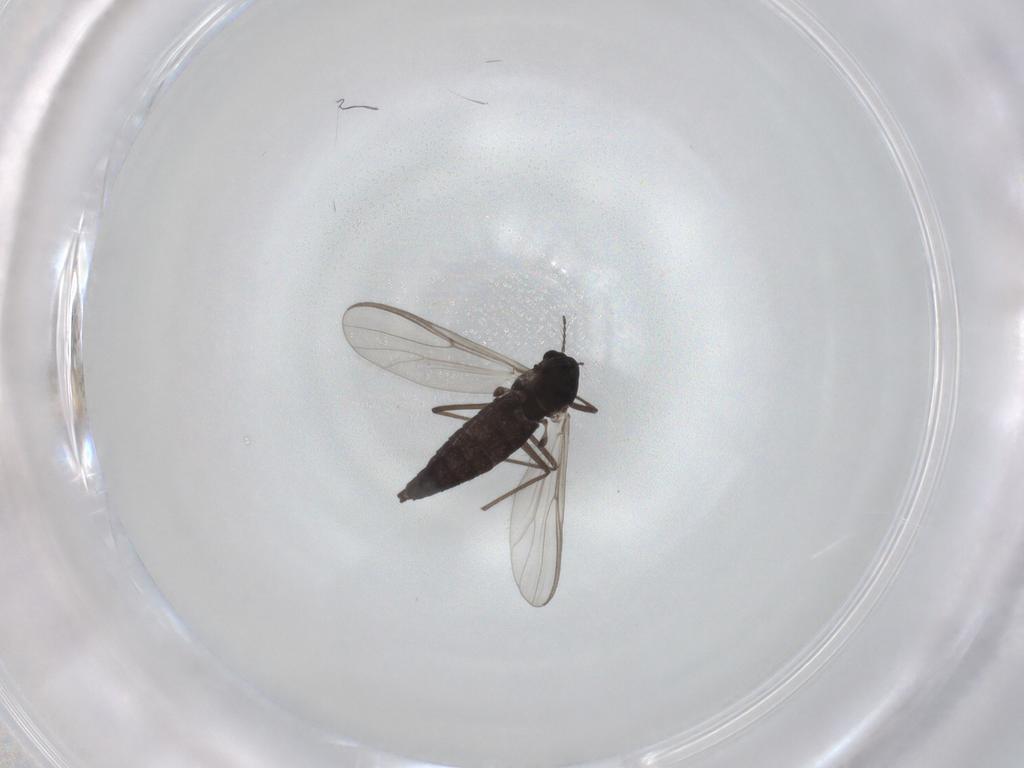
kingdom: Animalia
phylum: Arthropoda
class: Insecta
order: Diptera
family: Chironomidae
